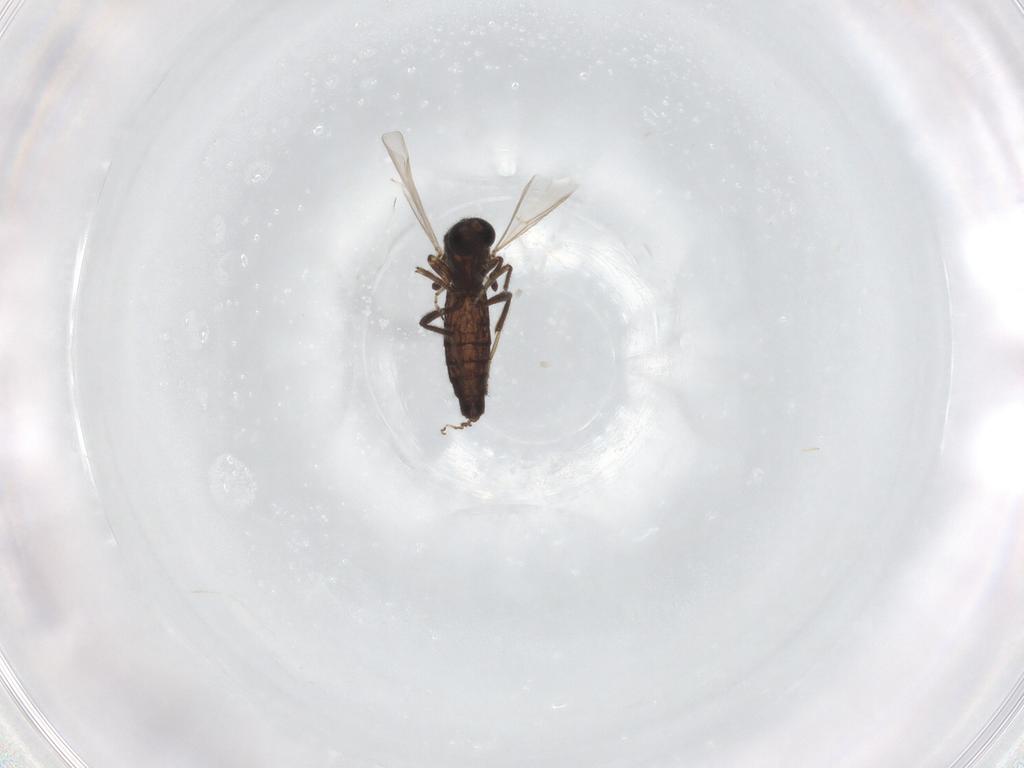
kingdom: Animalia
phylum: Arthropoda
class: Insecta
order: Diptera
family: Ceratopogonidae
